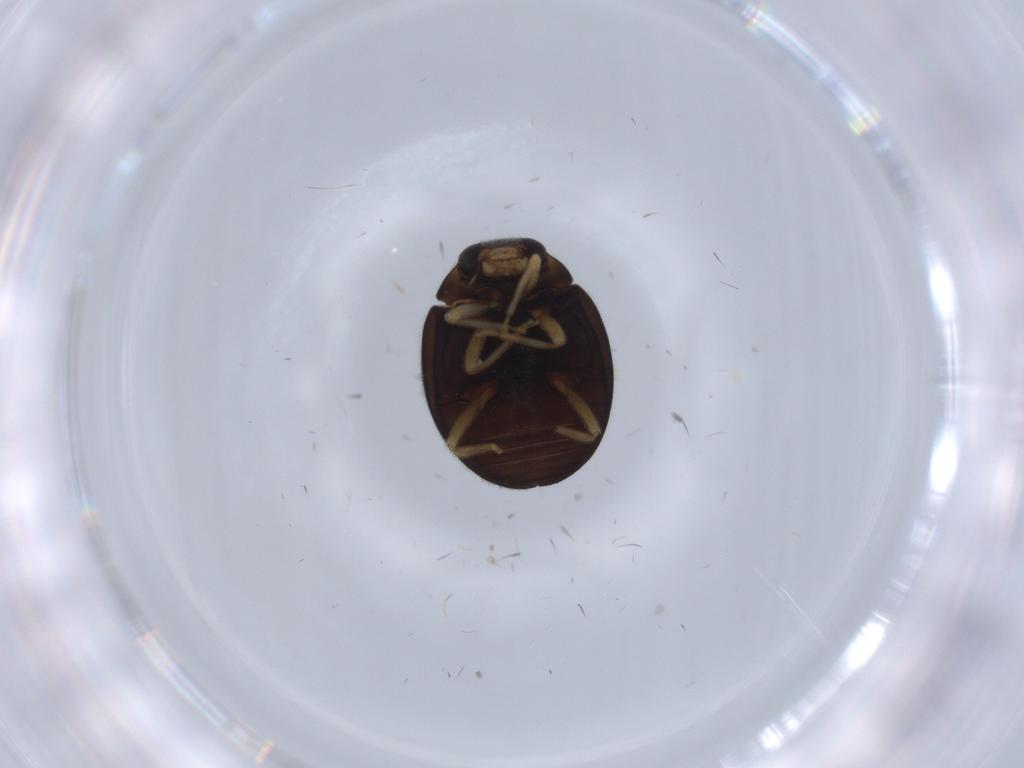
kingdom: Animalia
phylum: Arthropoda
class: Insecta
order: Coleoptera
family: Coccinellidae
